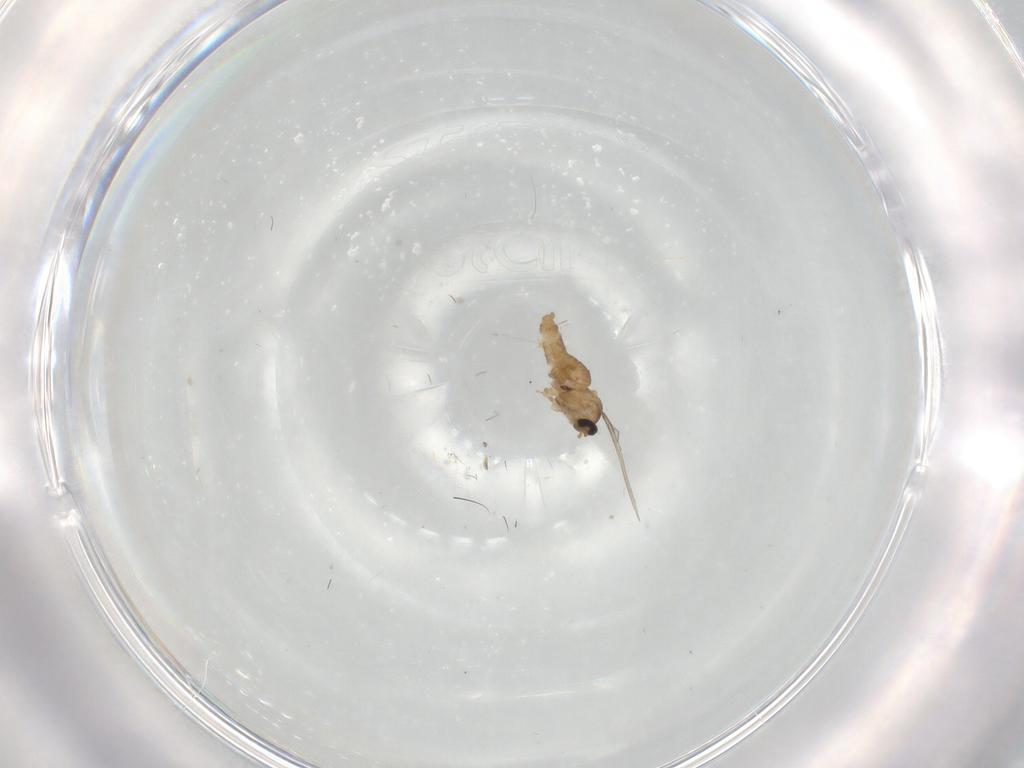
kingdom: Animalia
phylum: Arthropoda
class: Insecta
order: Diptera
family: Cecidomyiidae
